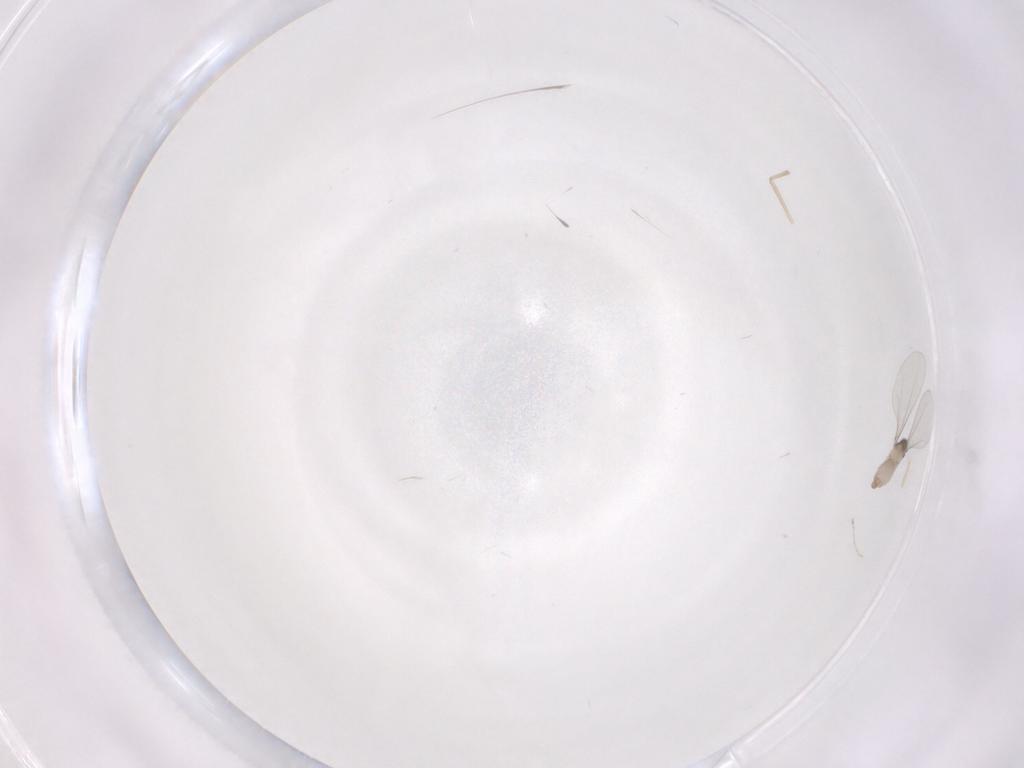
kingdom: Animalia
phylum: Arthropoda
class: Insecta
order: Diptera
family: Cecidomyiidae
